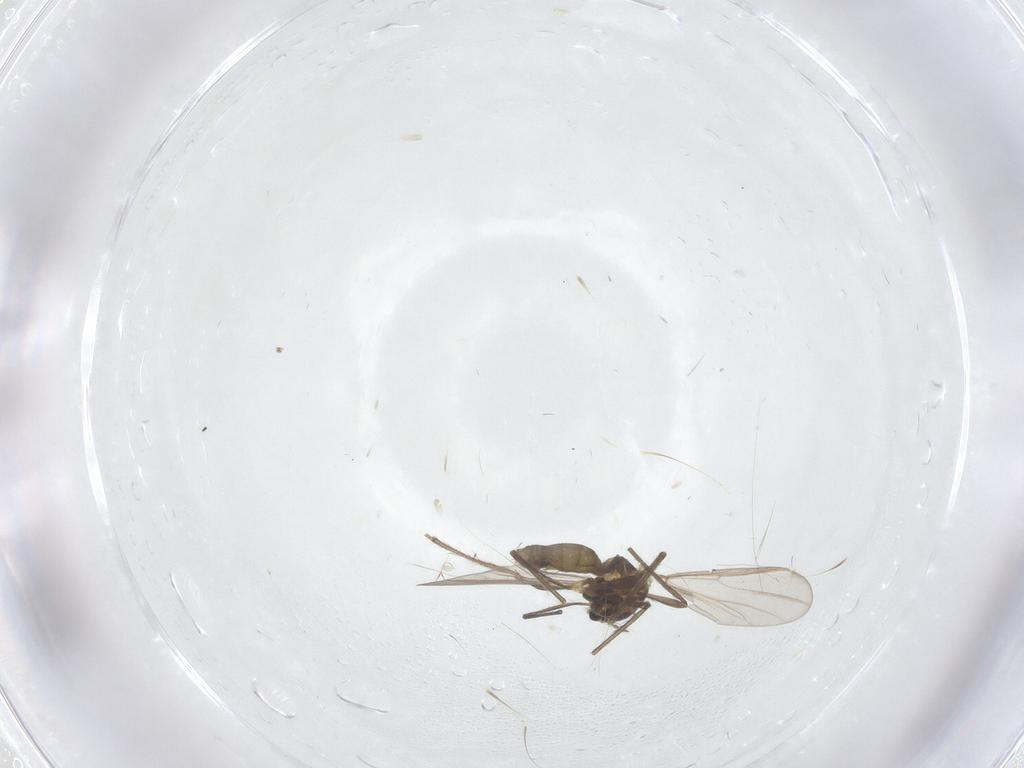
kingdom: Animalia
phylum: Arthropoda
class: Insecta
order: Diptera
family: Chironomidae
